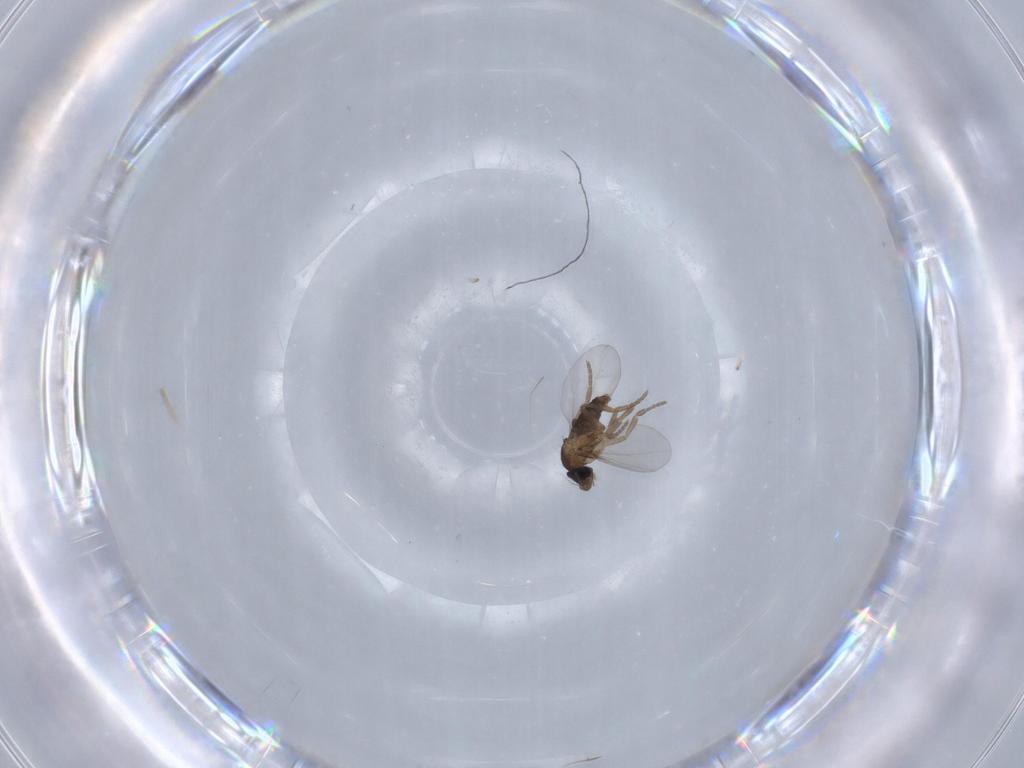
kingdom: Animalia
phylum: Arthropoda
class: Insecta
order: Diptera
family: Phoridae
